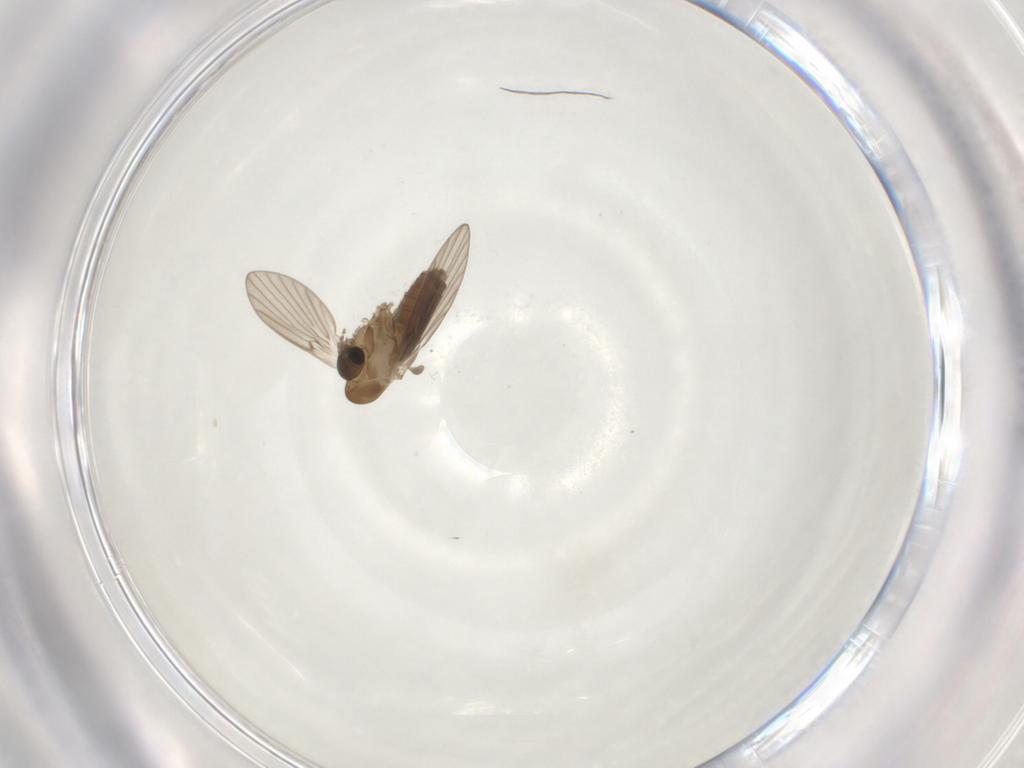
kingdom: Animalia
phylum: Arthropoda
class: Insecta
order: Diptera
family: Psychodidae
